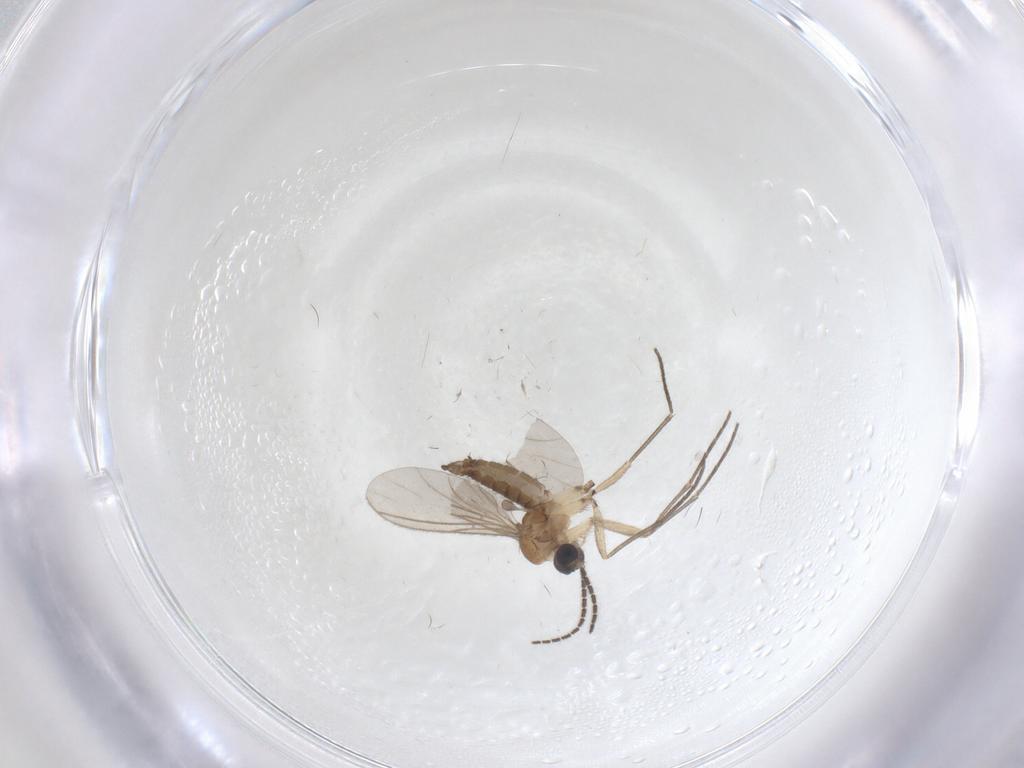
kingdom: Animalia
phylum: Arthropoda
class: Insecta
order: Diptera
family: Sciaridae
